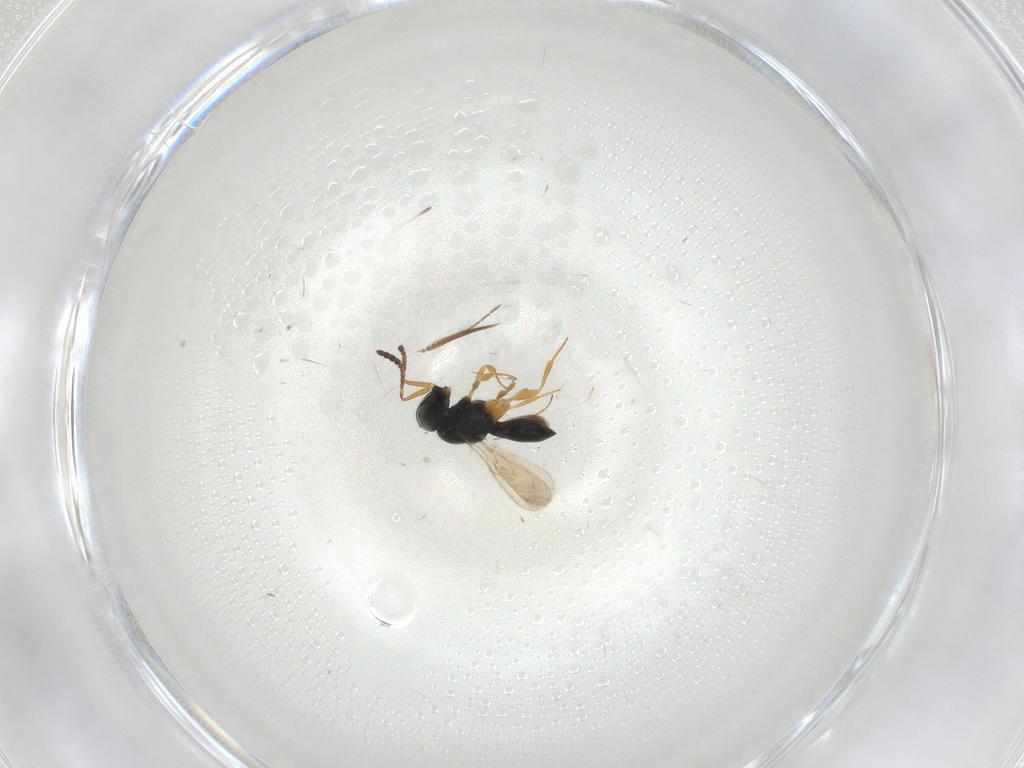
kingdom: Animalia
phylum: Arthropoda
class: Insecta
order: Hymenoptera
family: Scelionidae
